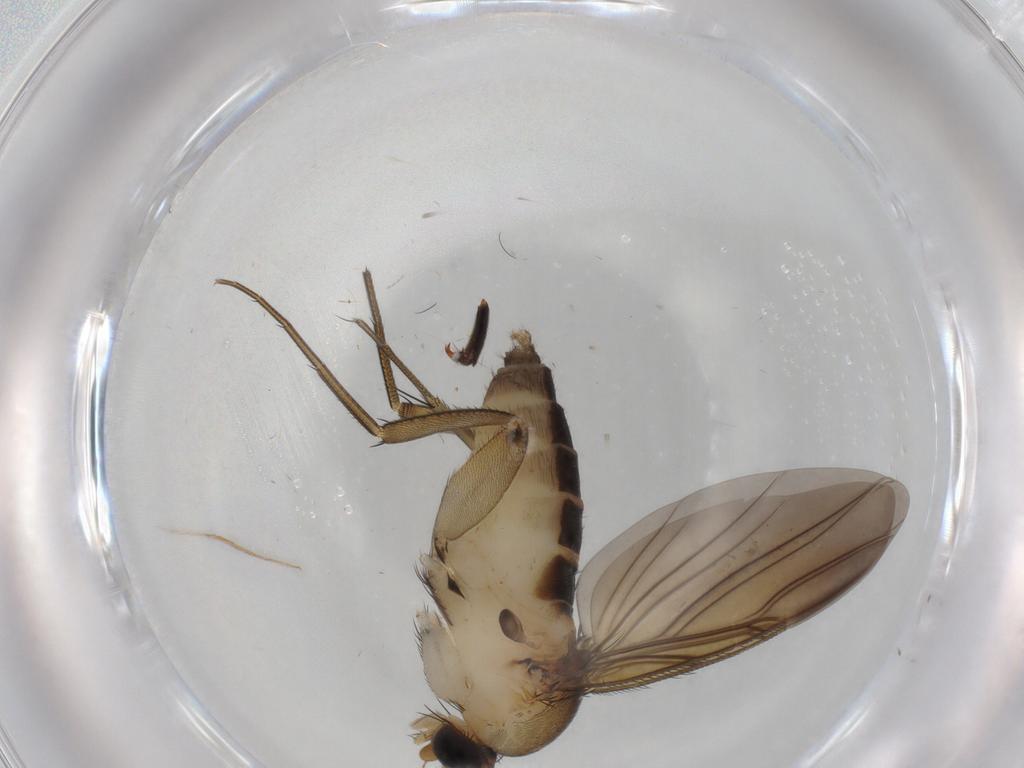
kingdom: Animalia
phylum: Arthropoda
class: Insecta
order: Diptera
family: Phoridae
